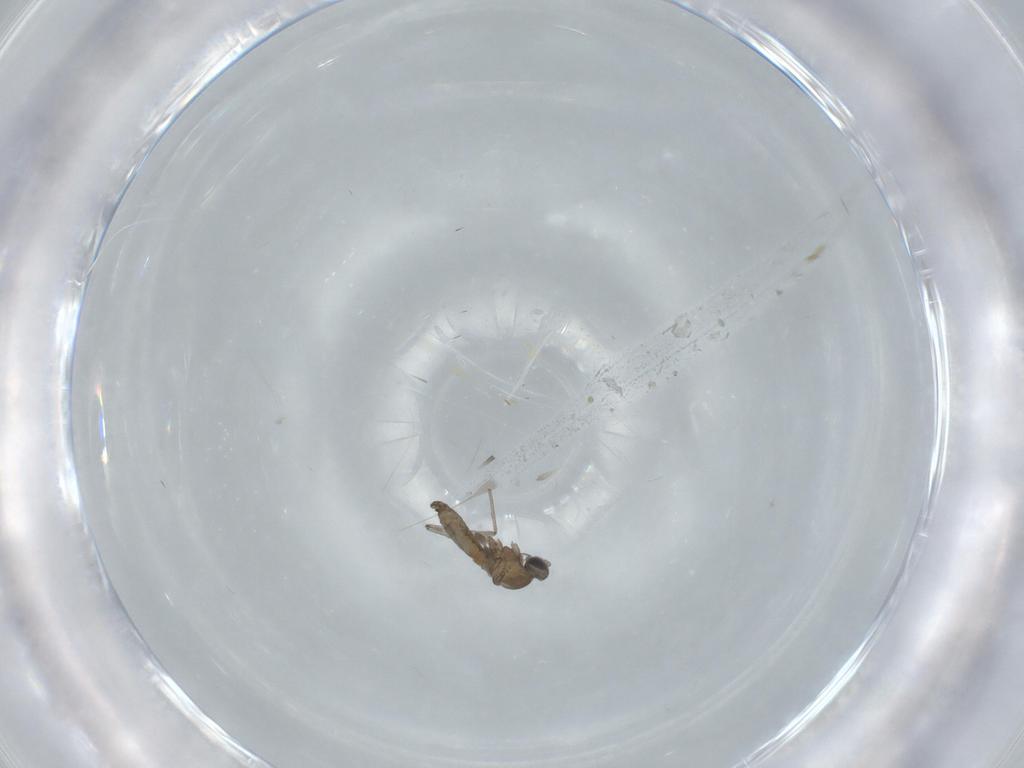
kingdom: Animalia
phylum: Arthropoda
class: Insecta
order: Diptera
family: Cecidomyiidae
